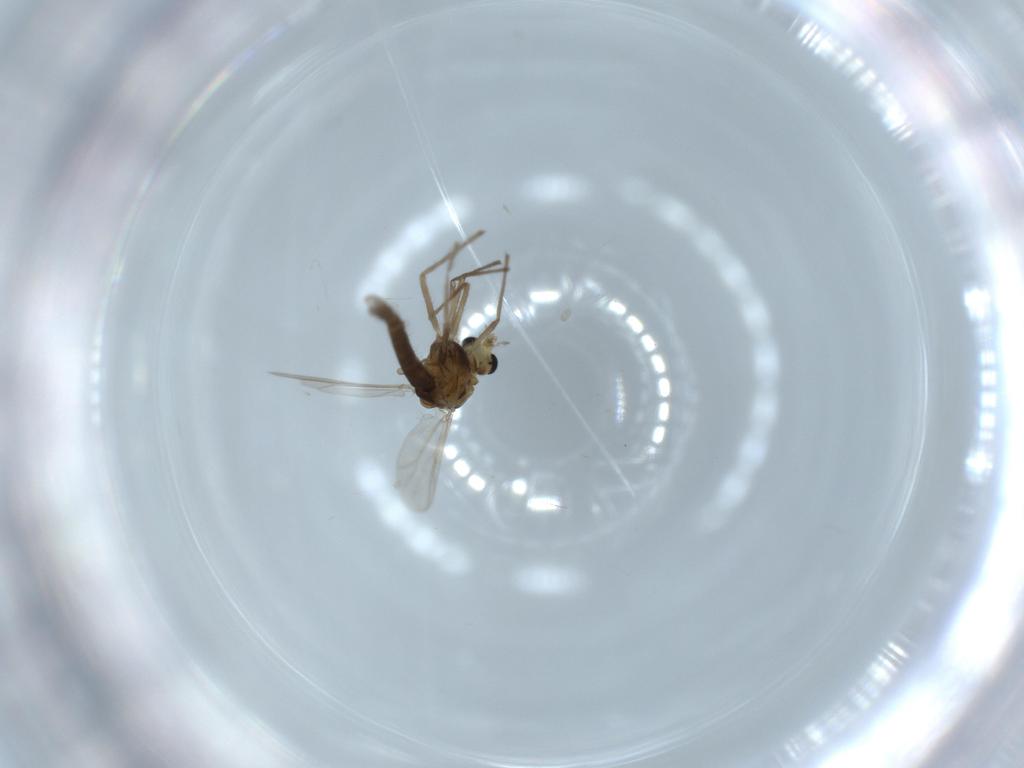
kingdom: Animalia
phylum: Arthropoda
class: Insecta
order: Diptera
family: Chironomidae
